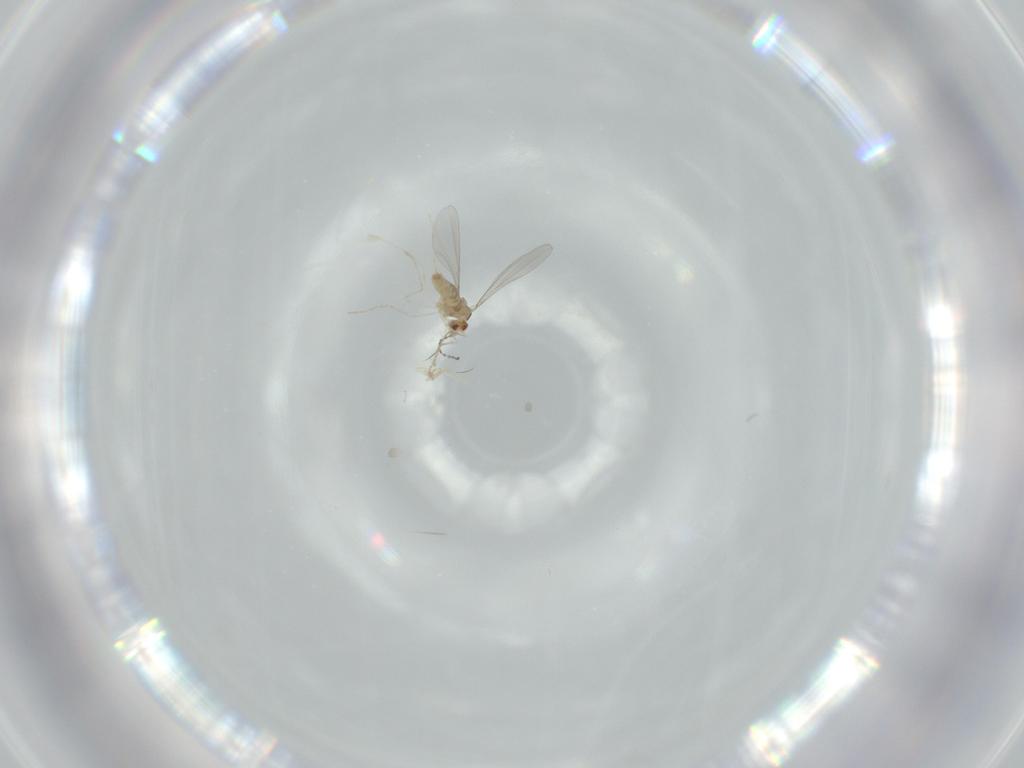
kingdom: Animalia
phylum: Arthropoda
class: Insecta
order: Diptera
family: Cecidomyiidae
